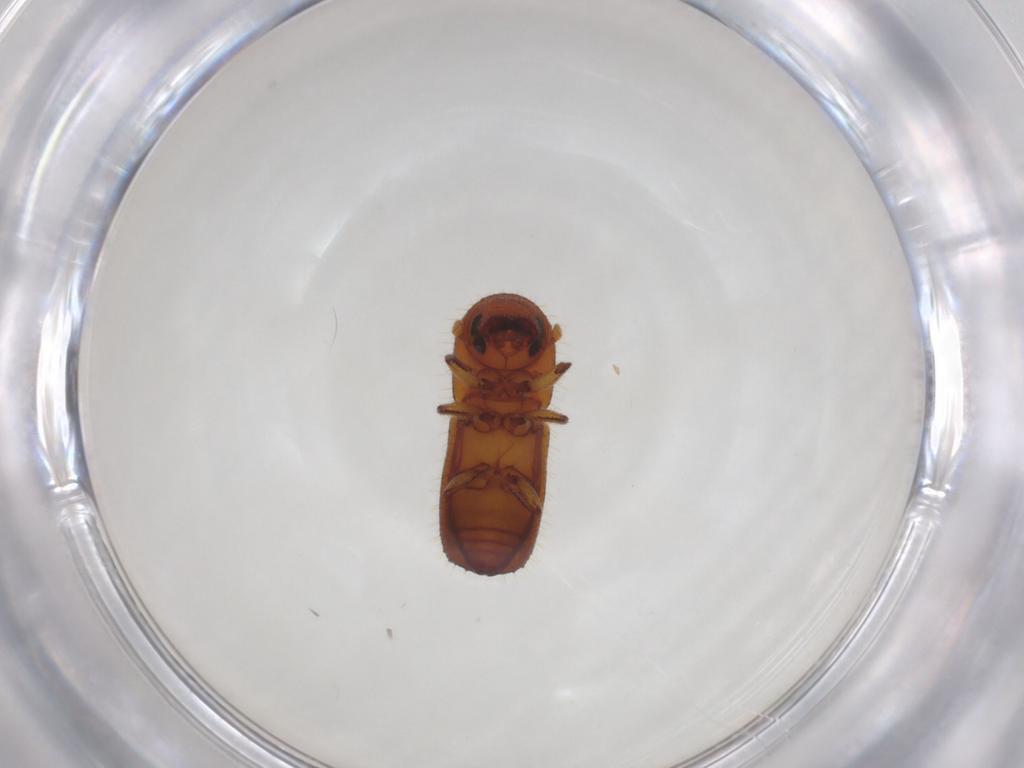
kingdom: Animalia
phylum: Arthropoda
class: Insecta
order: Coleoptera
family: Curculionidae
